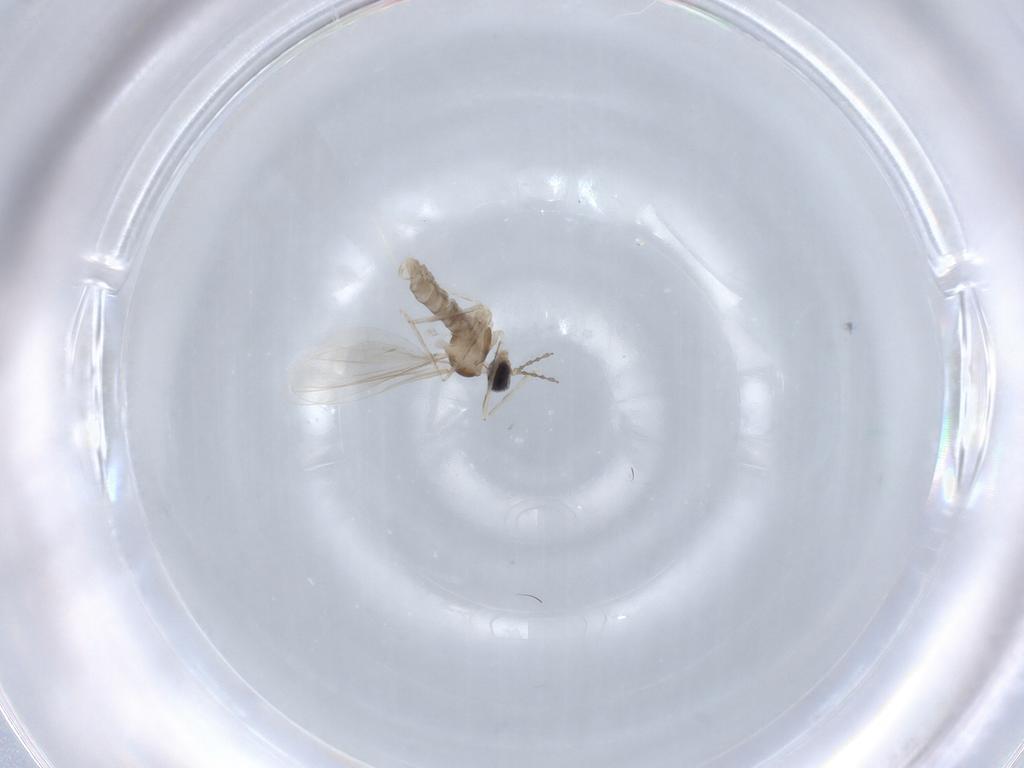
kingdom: Animalia
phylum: Arthropoda
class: Insecta
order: Diptera
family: Cecidomyiidae
